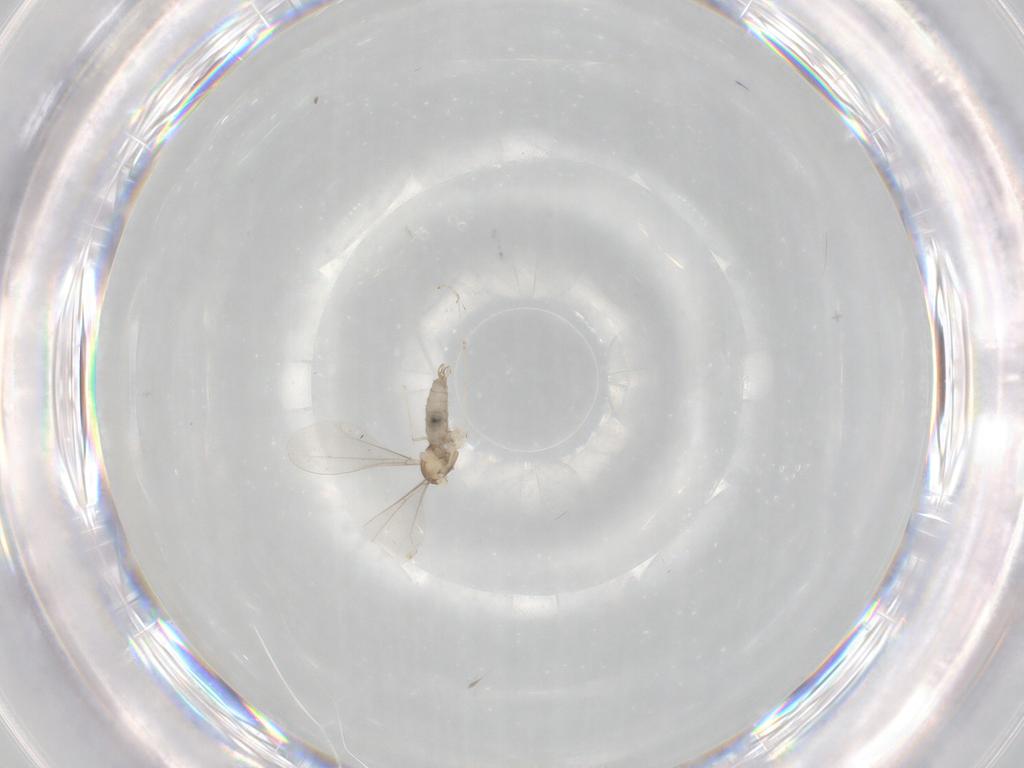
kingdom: Animalia
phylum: Arthropoda
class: Insecta
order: Diptera
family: Cecidomyiidae
